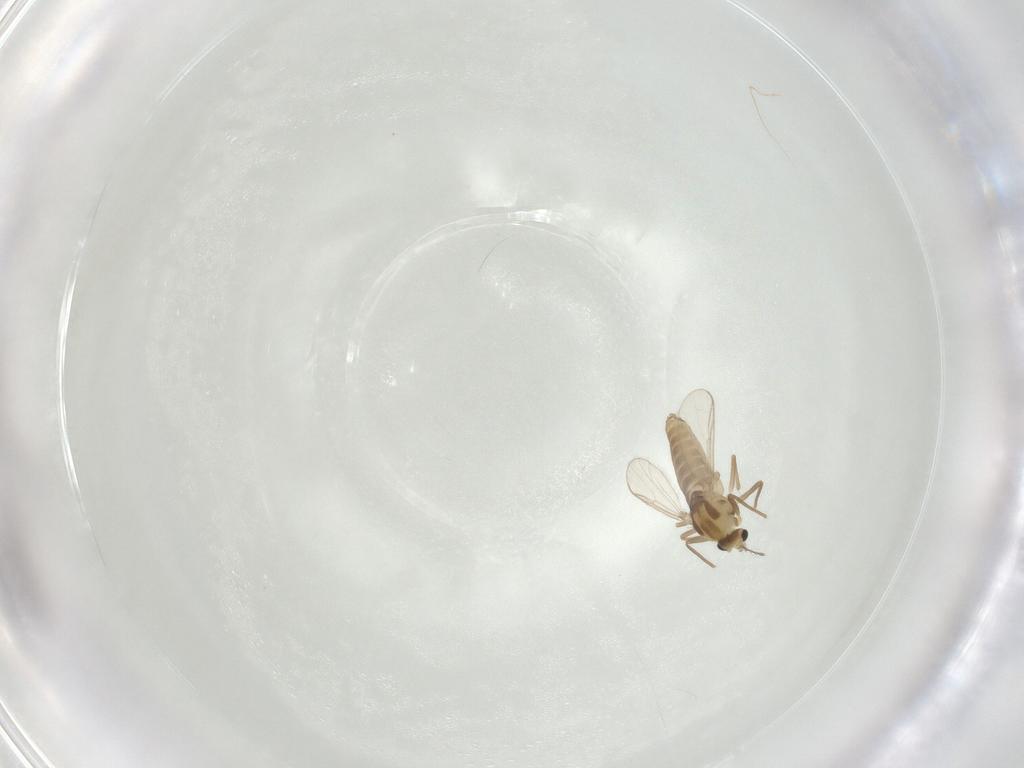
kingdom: Animalia
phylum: Arthropoda
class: Insecta
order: Diptera
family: Chironomidae
